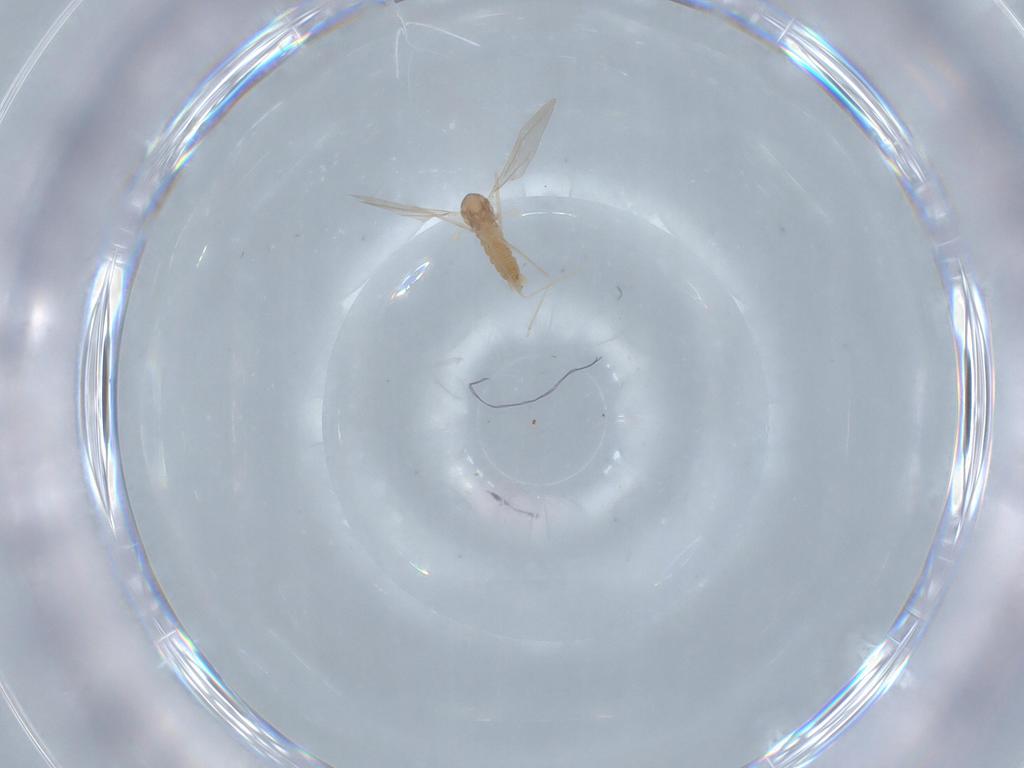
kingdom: Animalia
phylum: Arthropoda
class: Insecta
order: Diptera
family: Cecidomyiidae
